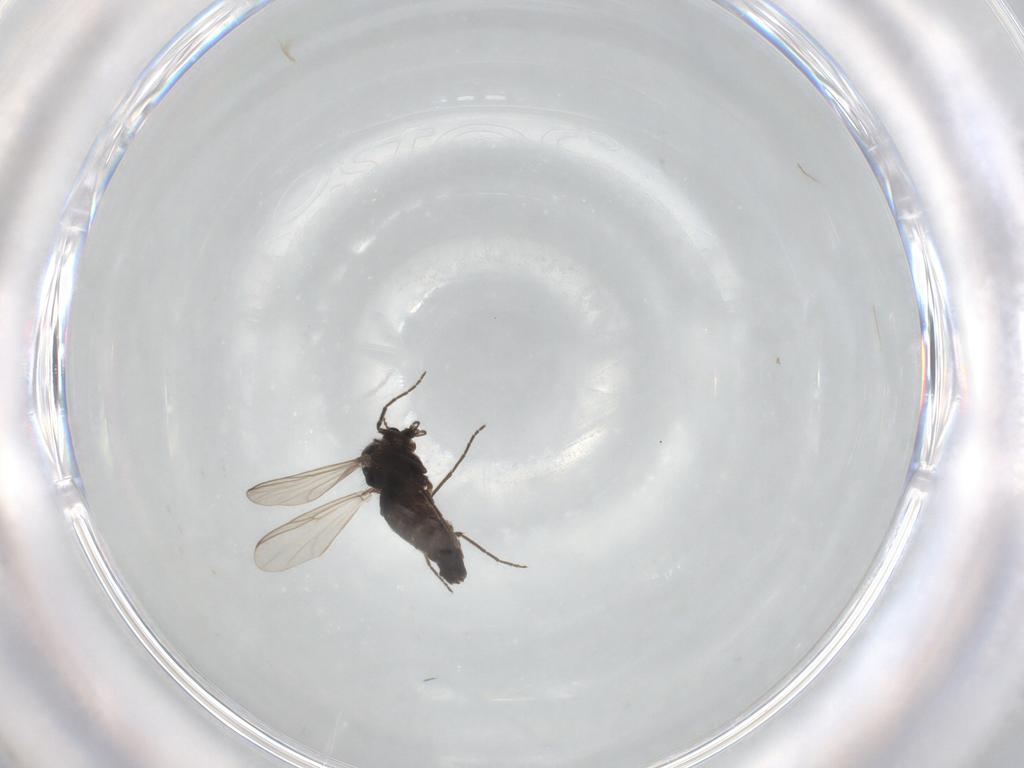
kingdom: Animalia
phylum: Arthropoda
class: Insecta
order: Diptera
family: Chironomidae
